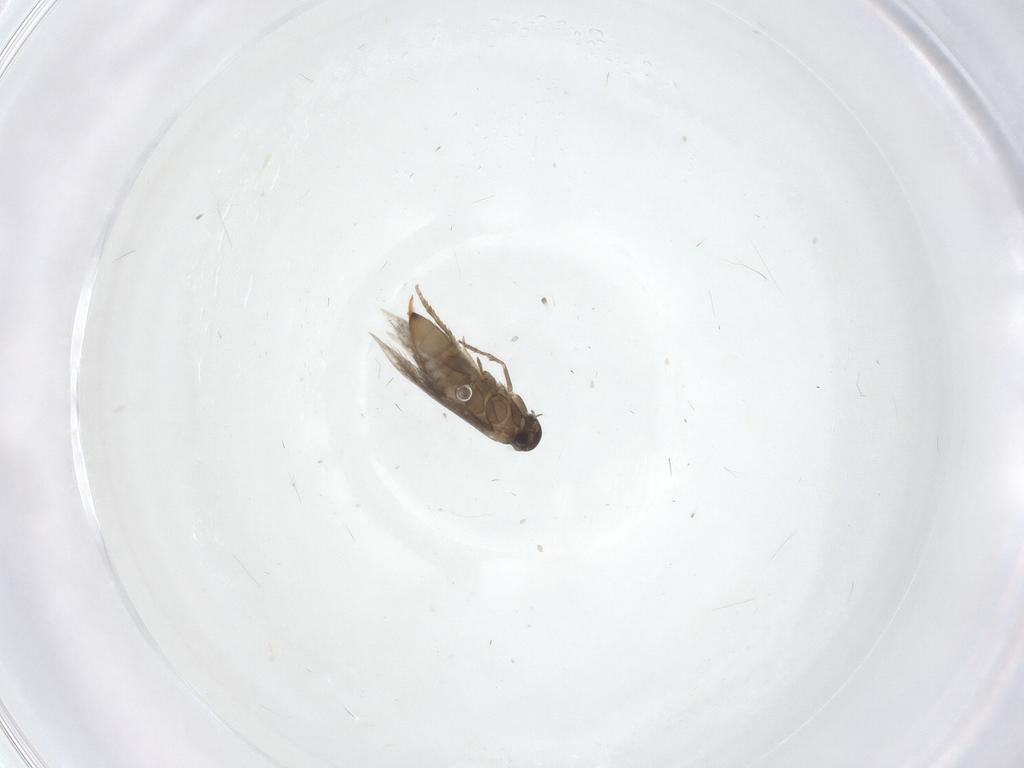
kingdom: Animalia
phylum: Arthropoda
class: Insecta
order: Lepidoptera
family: Heliozelidae
